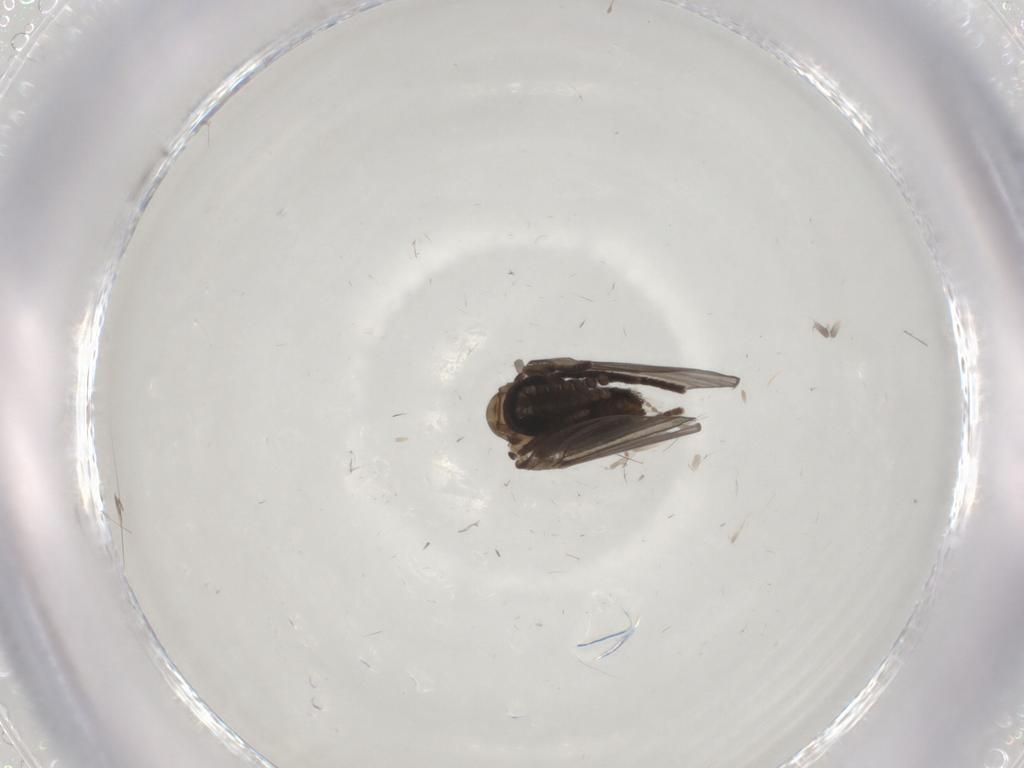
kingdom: Animalia
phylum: Arthropoda
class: Insecta
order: Diptera
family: Psychodidae
